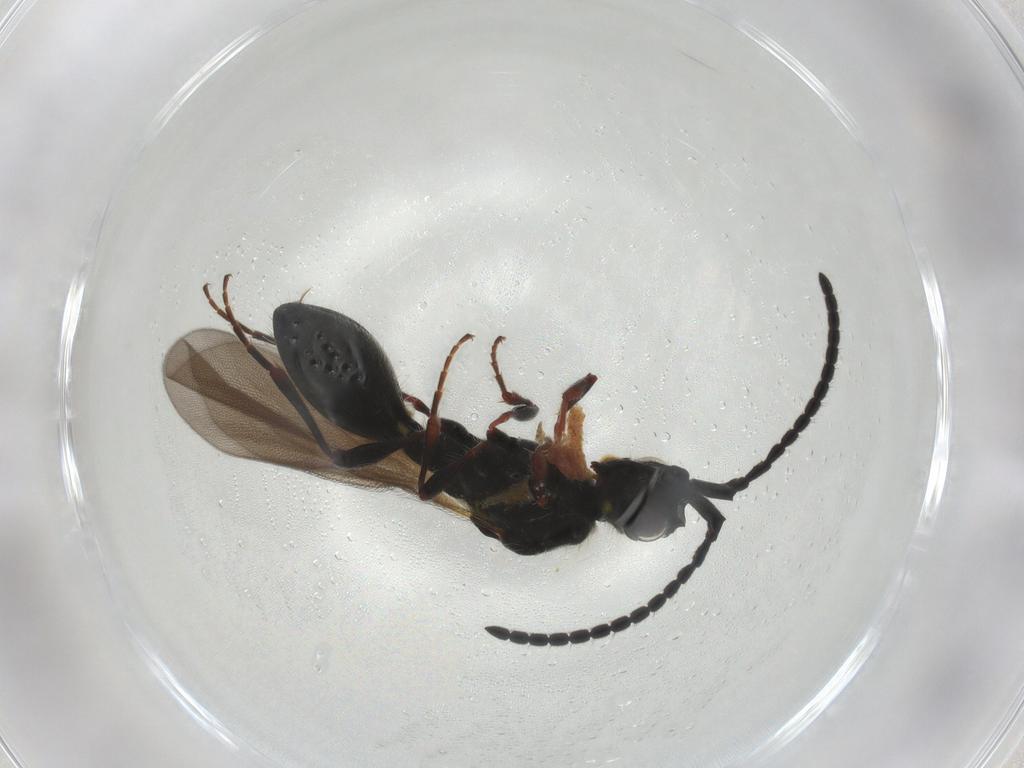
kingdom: Animalia
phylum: Arthropoda
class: Insecta
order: Hymenoptera
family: Diapriidae
